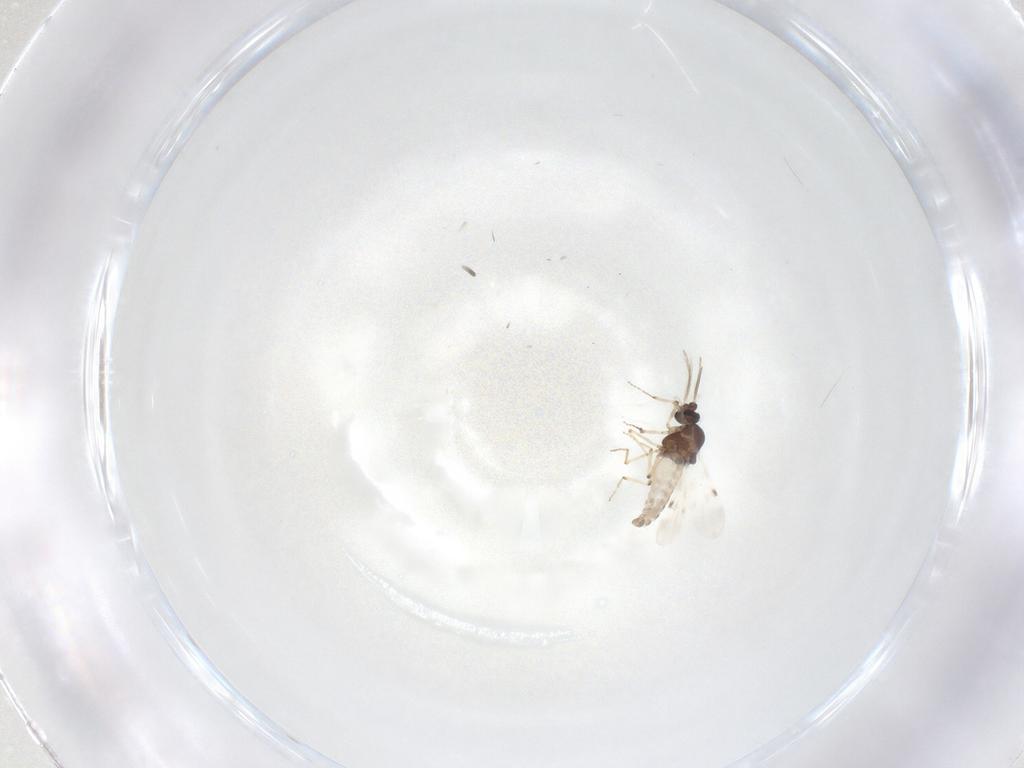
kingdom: Animalia
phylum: Arthropoda
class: Insecta
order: Diptera
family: Cecidomyiidae
